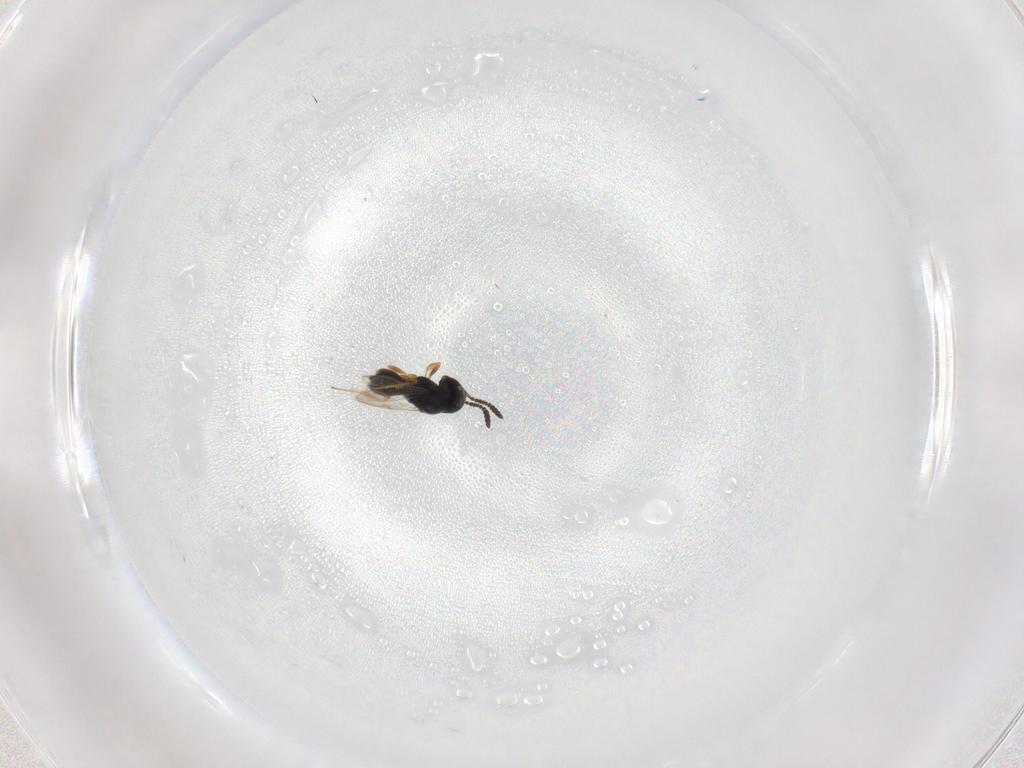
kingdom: Animalia
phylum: Arthropoda
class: Insecta
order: Hymenoptera
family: Scelionidae
